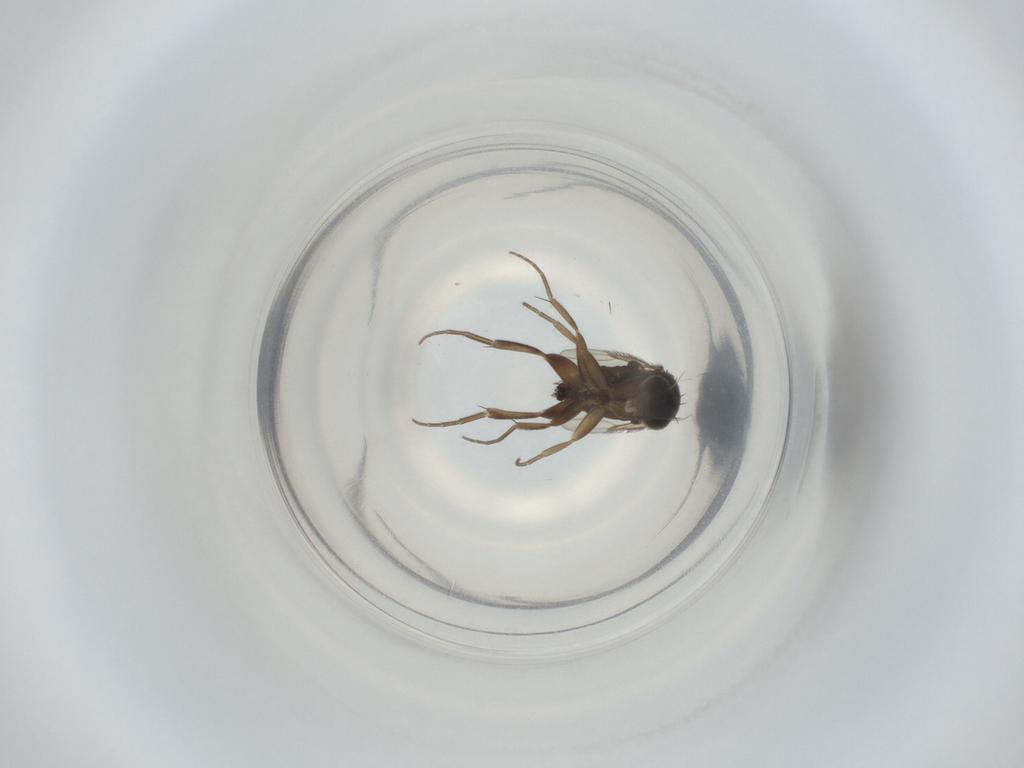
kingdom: Animalia
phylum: Arthropoda
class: Insecta
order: Diptera
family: Phoridae
